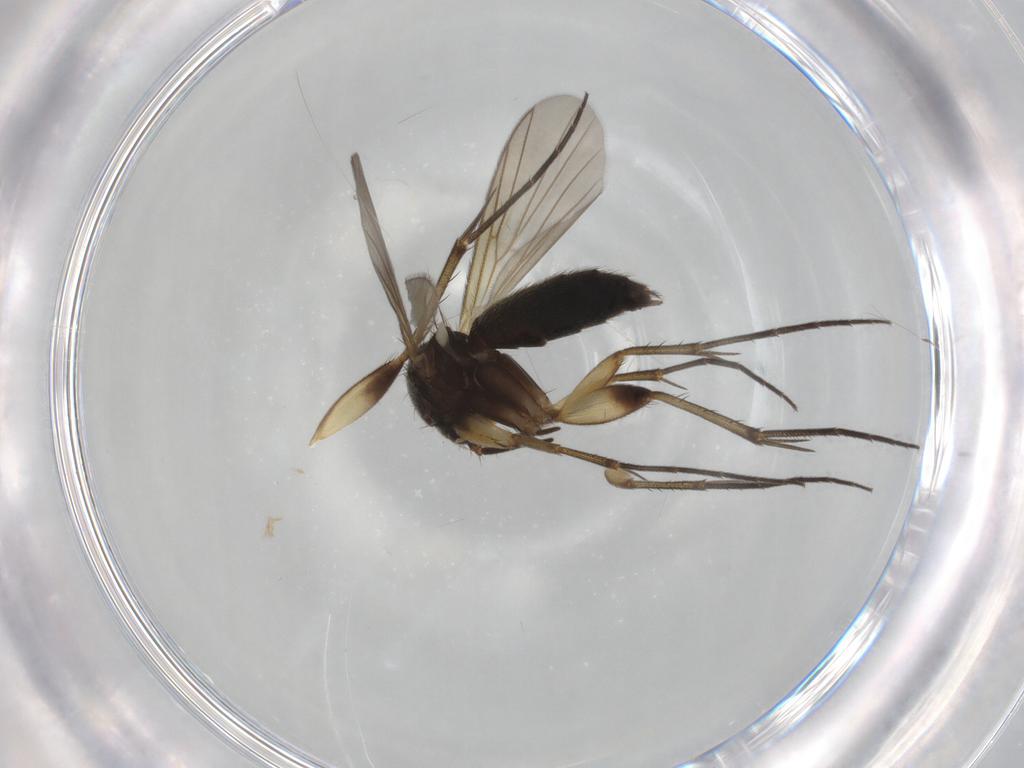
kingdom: Animalia
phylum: Arthropoda
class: Insecta
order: Diptera
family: Mycetophilidae
